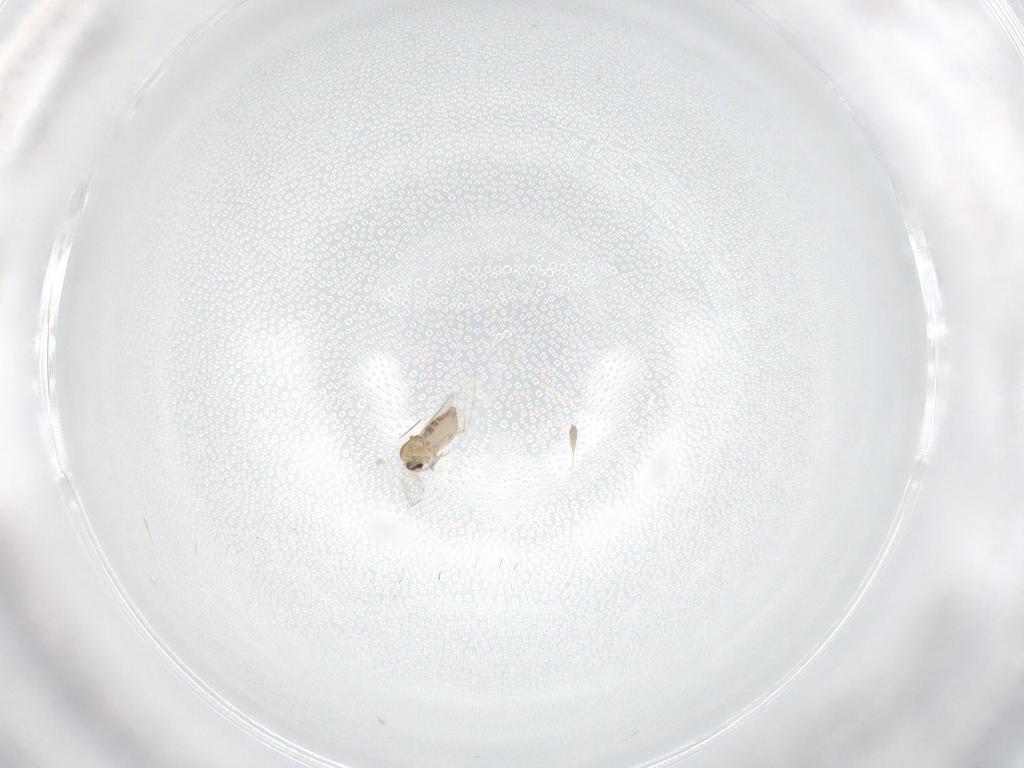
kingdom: Animalia
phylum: Arthropoda
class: Insecta
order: Diptera
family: Ceratopogonidae
